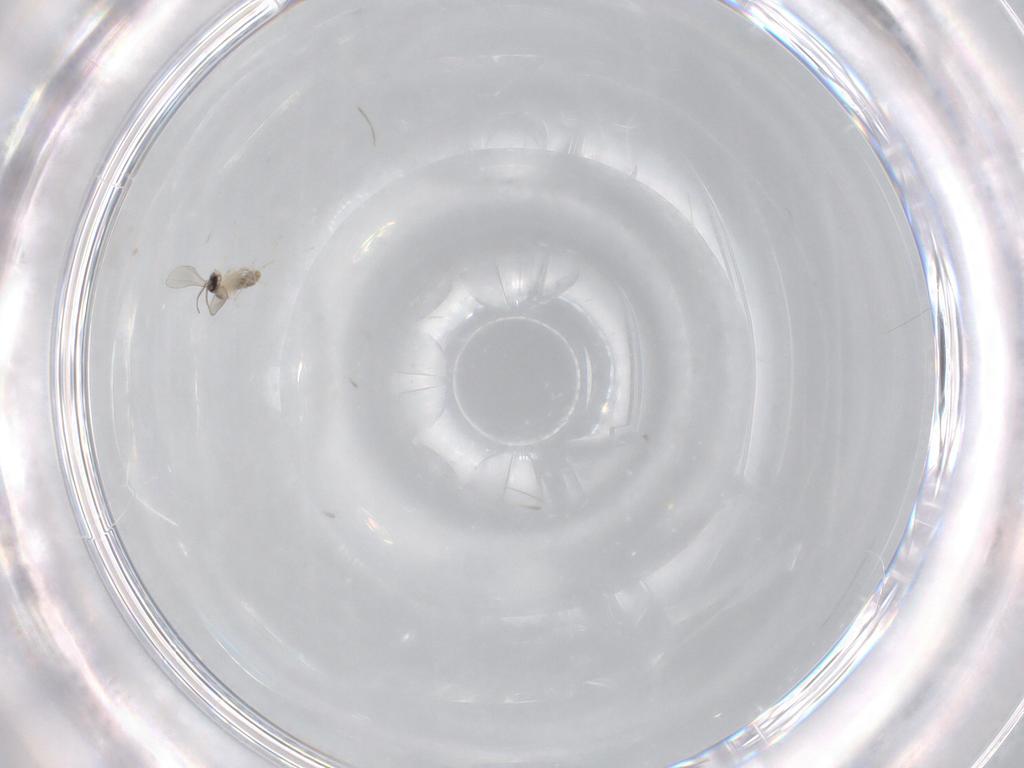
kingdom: Animalia
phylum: Arthropoda
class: Insecta
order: Diptera
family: Cecidomyiidae
